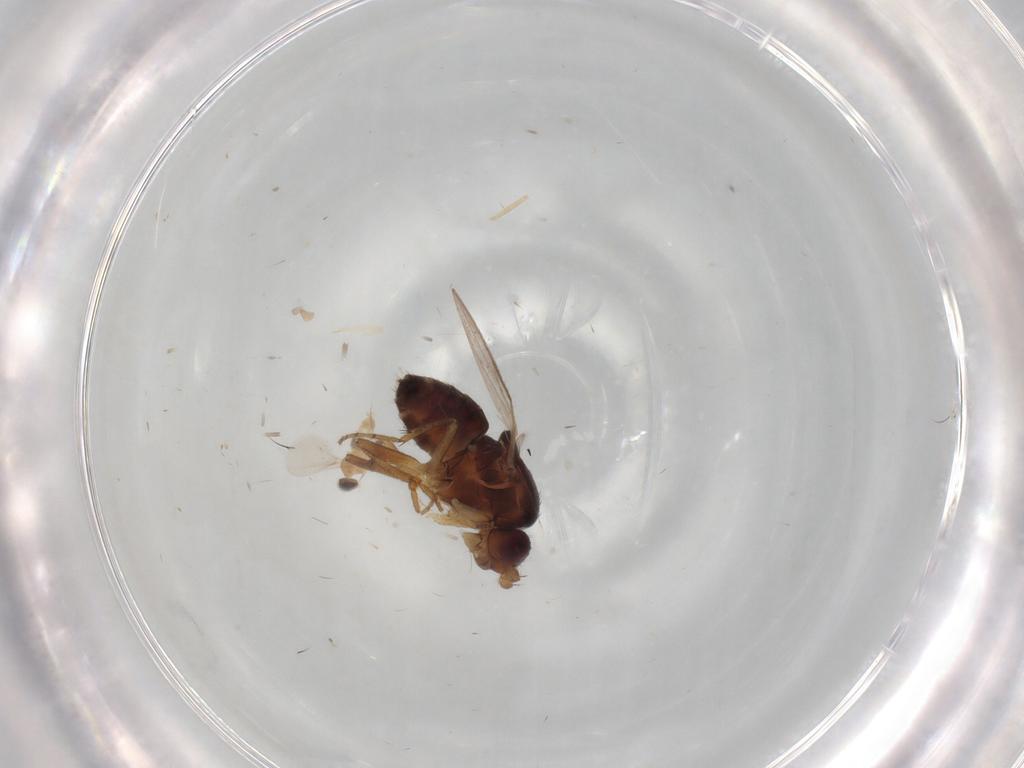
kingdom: Animalia
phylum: Arthropoda
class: Insecta
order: Diptera
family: Cecidomyiidae
